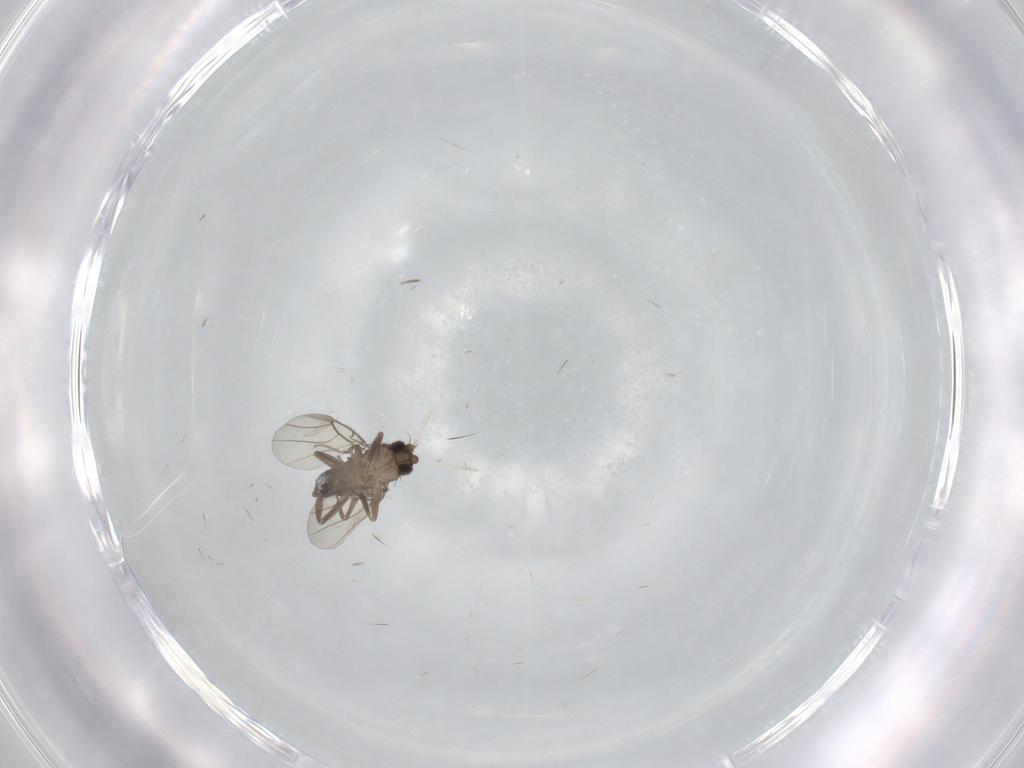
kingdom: Animalia
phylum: Arthropoda
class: Insecta
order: Diptera
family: Phoridae
